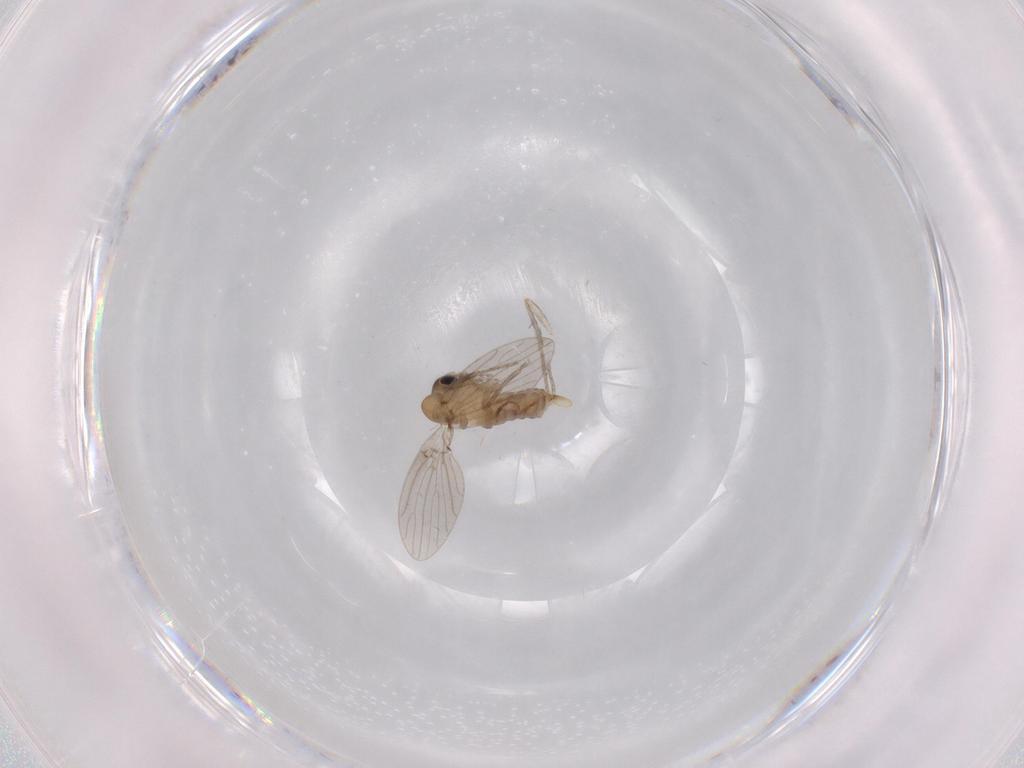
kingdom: Animalia
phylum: Arthropoda
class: Insecta
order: Diptera
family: Psychodidae
